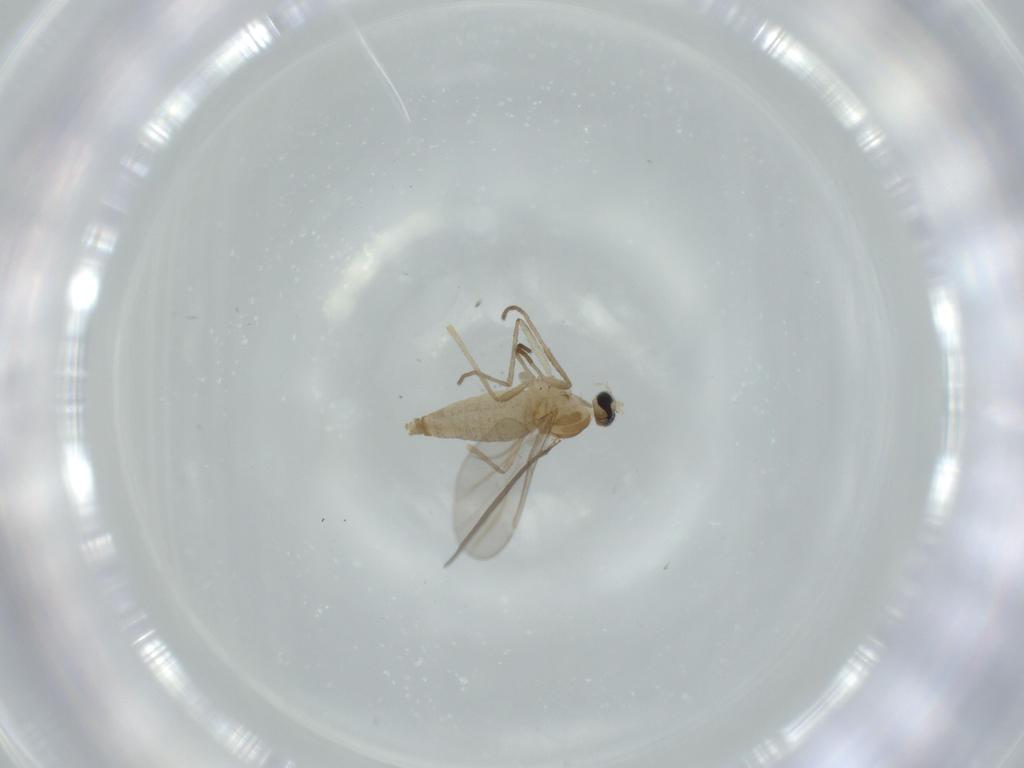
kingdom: Animalia
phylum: Arthropoda
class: Insecta
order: Diptera
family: Cecidomyiidae
